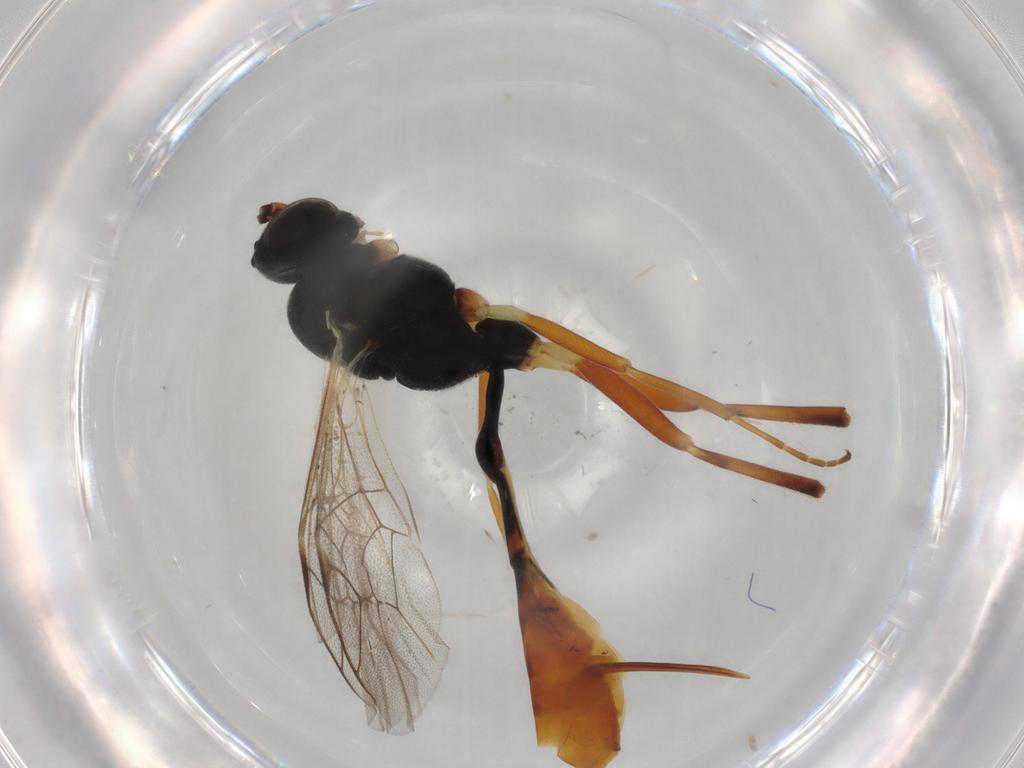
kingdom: Animalia
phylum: Arthropoda
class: Insecta
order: Hymenoptera
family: Ichneumonidae
